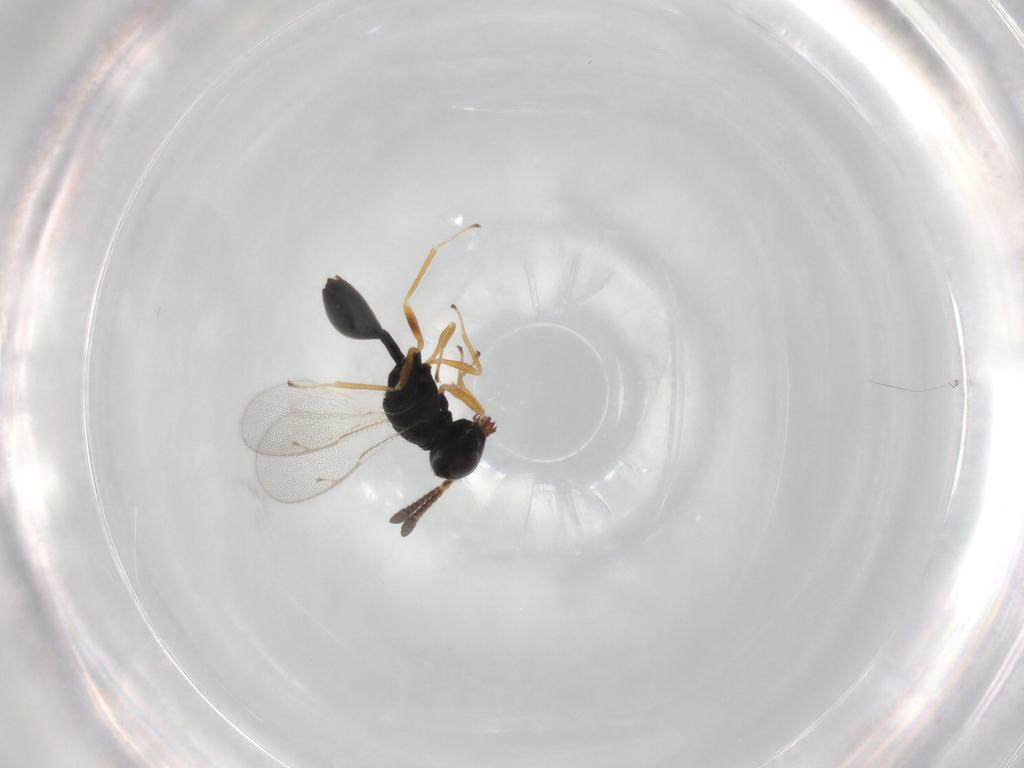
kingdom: Animalia
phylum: Arthropoda
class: Insecta
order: Hymenoptera
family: Pteromalidae
